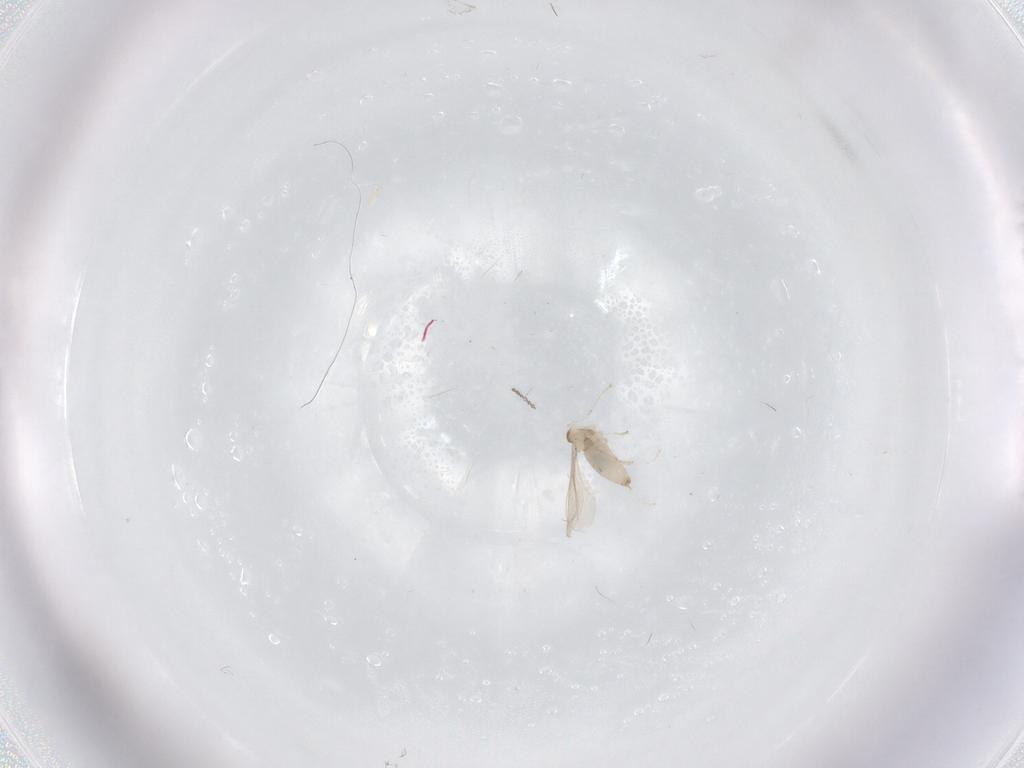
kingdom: Animalia
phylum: Arthropoda
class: Insecta
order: Diptera
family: Cecidomyiidae
